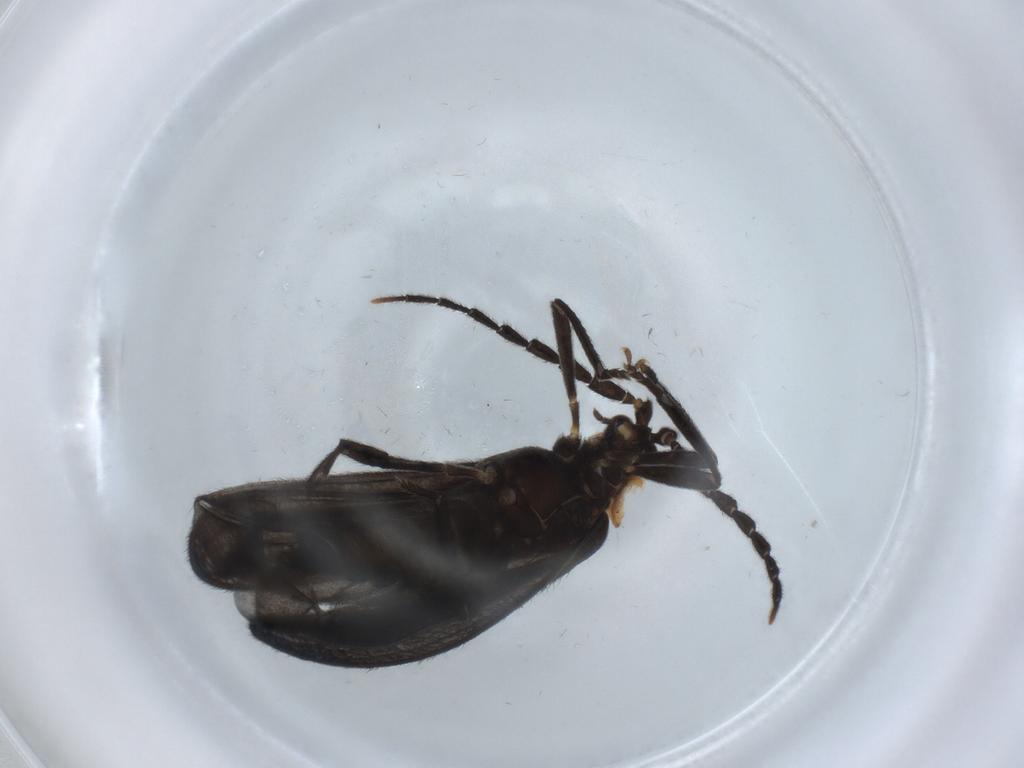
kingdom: Animalia
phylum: Arthropoda
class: Insecta
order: Coleoptera
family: Lycidae
